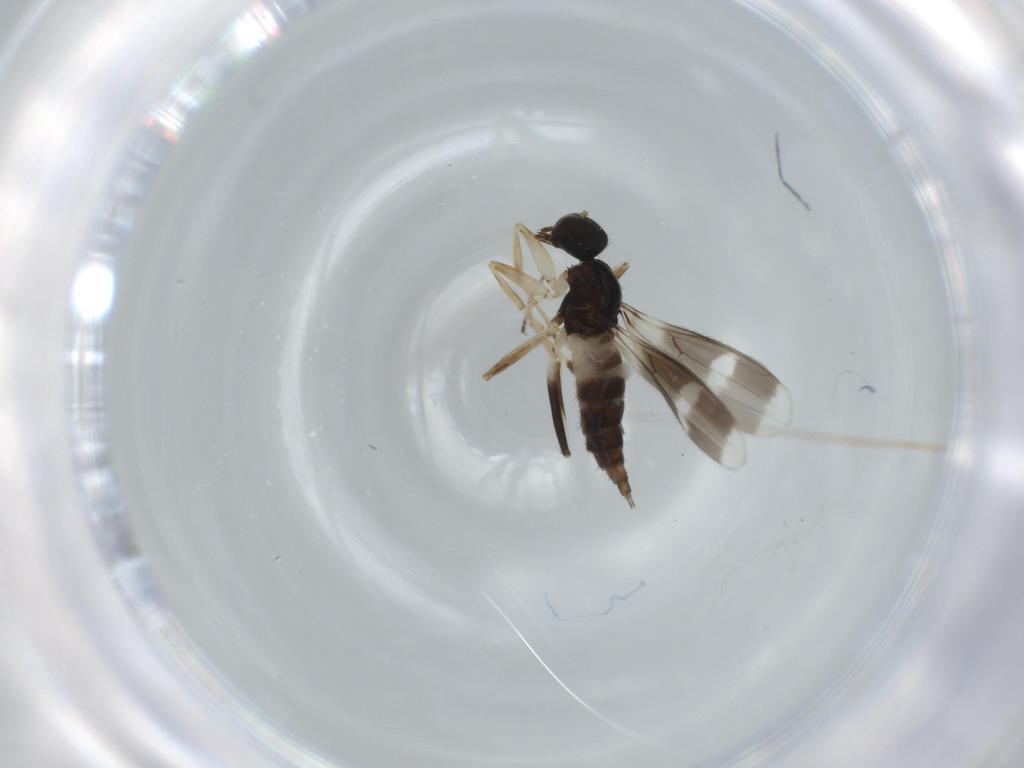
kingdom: Animalia
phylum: Arthropoda
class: Insecta
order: Diptera
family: Hybotidae
